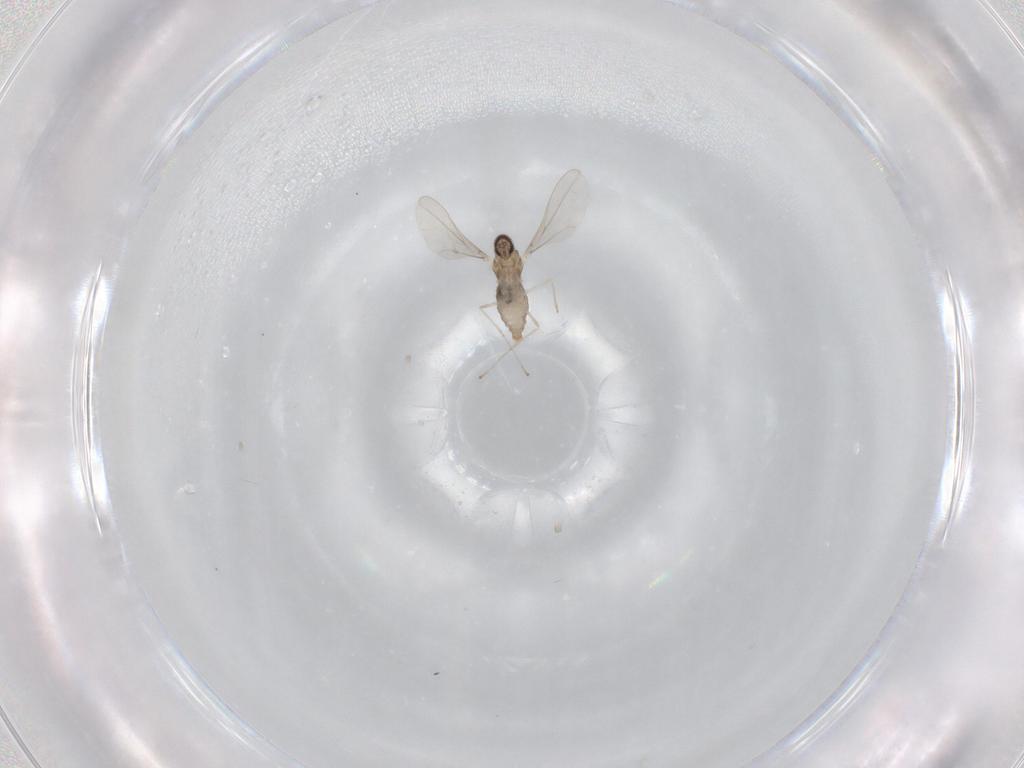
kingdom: Animalia
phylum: Arthropoda
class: Insecta
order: Diptera
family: Cecidomyiidae
